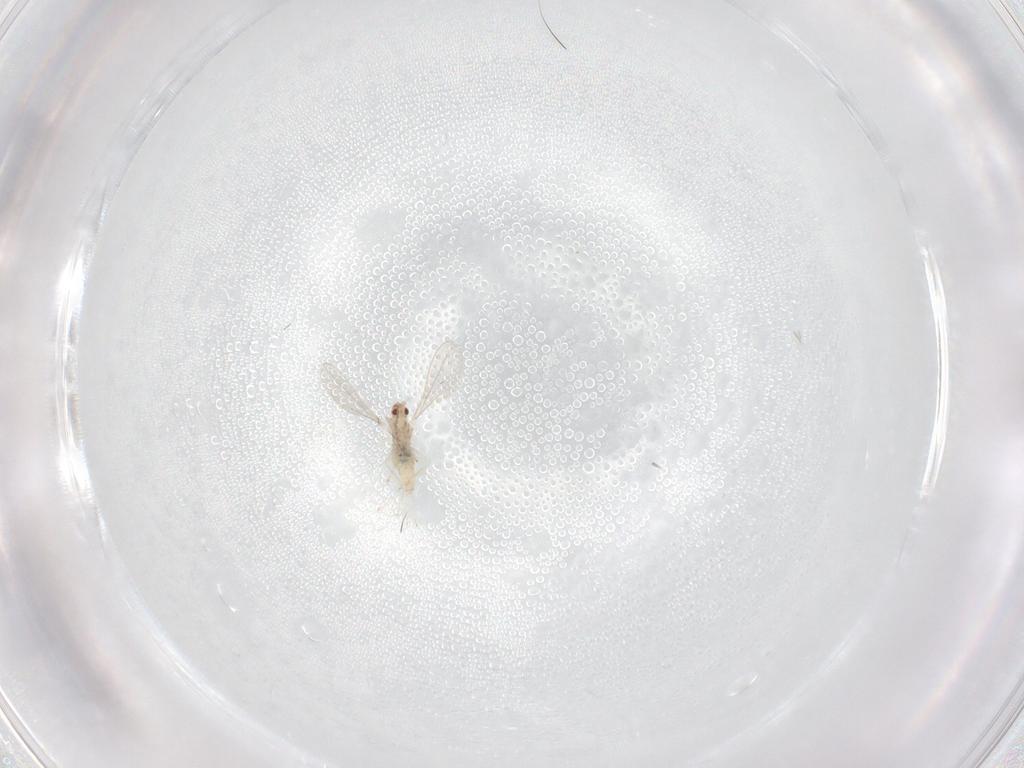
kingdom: Animalia
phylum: Arthropoda
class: Insecta
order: Diptera
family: Cecidomyiidae
